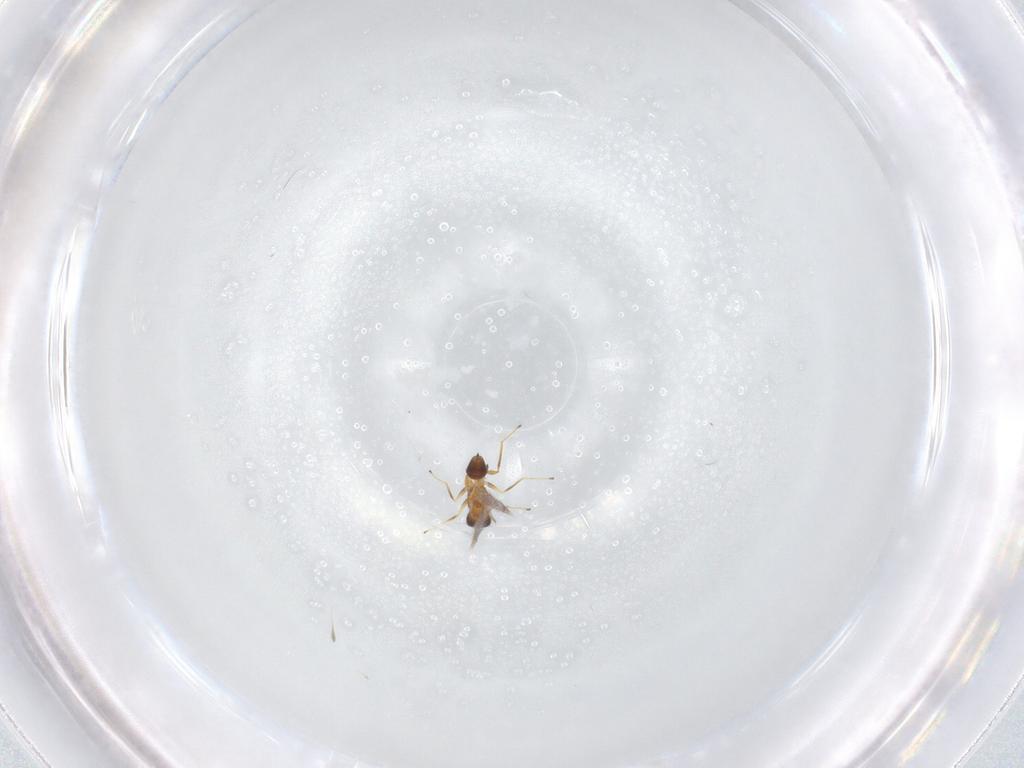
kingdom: Animalia
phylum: Arthropoda
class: Insecta
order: Hymenoptera
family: Mymaridae
